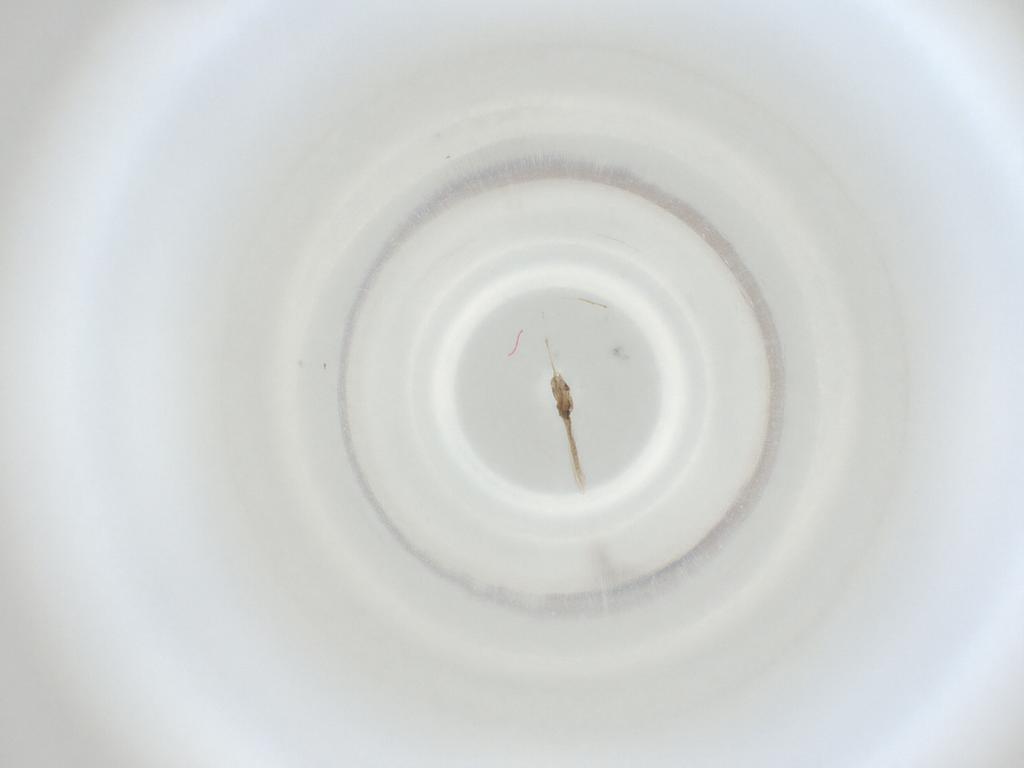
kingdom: Animalia
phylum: Arthropoda
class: Insecta
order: Diptera
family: Cecidomyiidae
